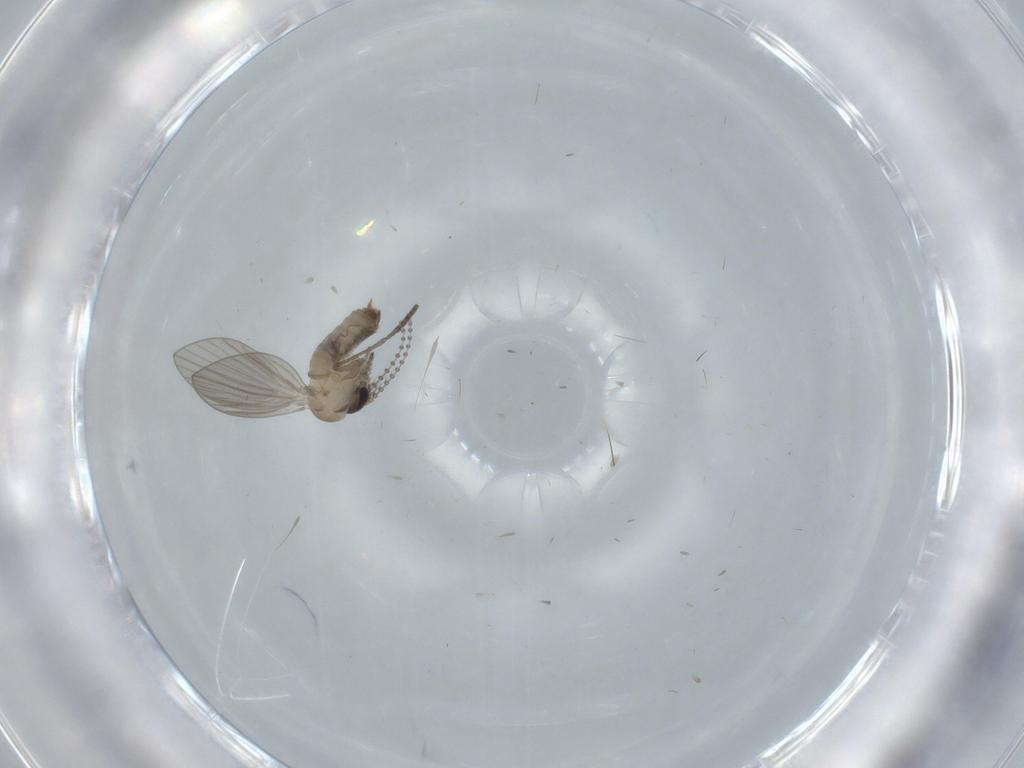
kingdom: Animalia
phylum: Arthropoda
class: Insecta
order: Diptera
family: Psychodidae
